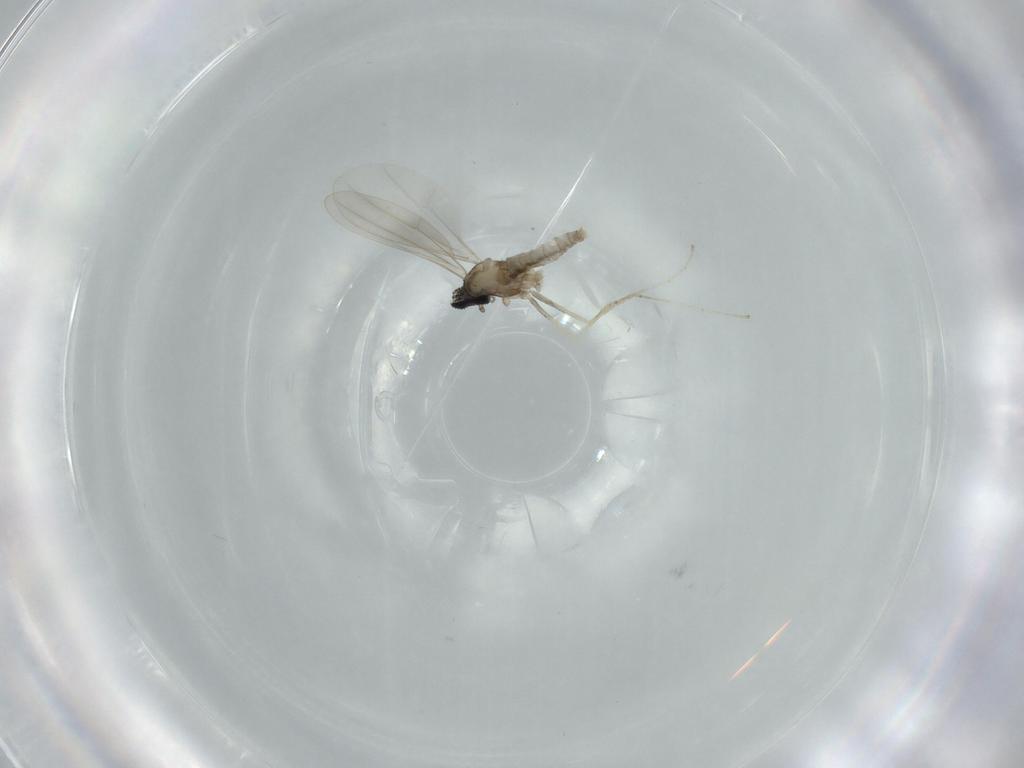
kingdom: Animalia
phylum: Arthropoda
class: Insecta
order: Diptera
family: Cecidomyiidae
